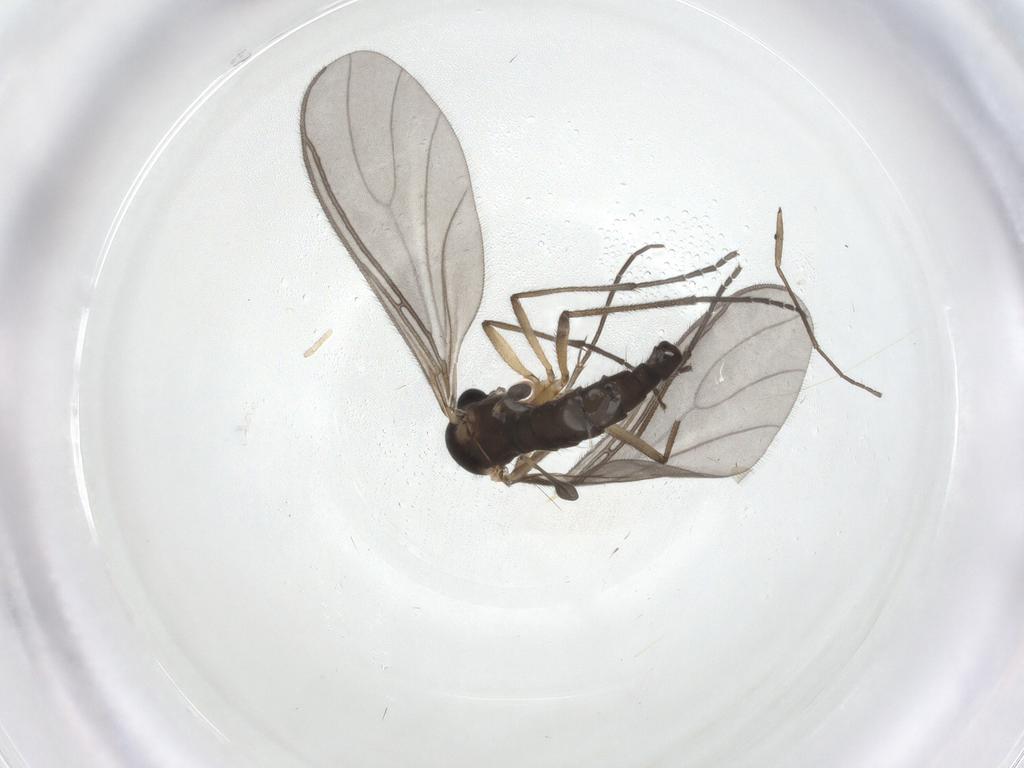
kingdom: Animalia
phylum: Arthropoda
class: Insecta
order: Diptera
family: Sciaridae
